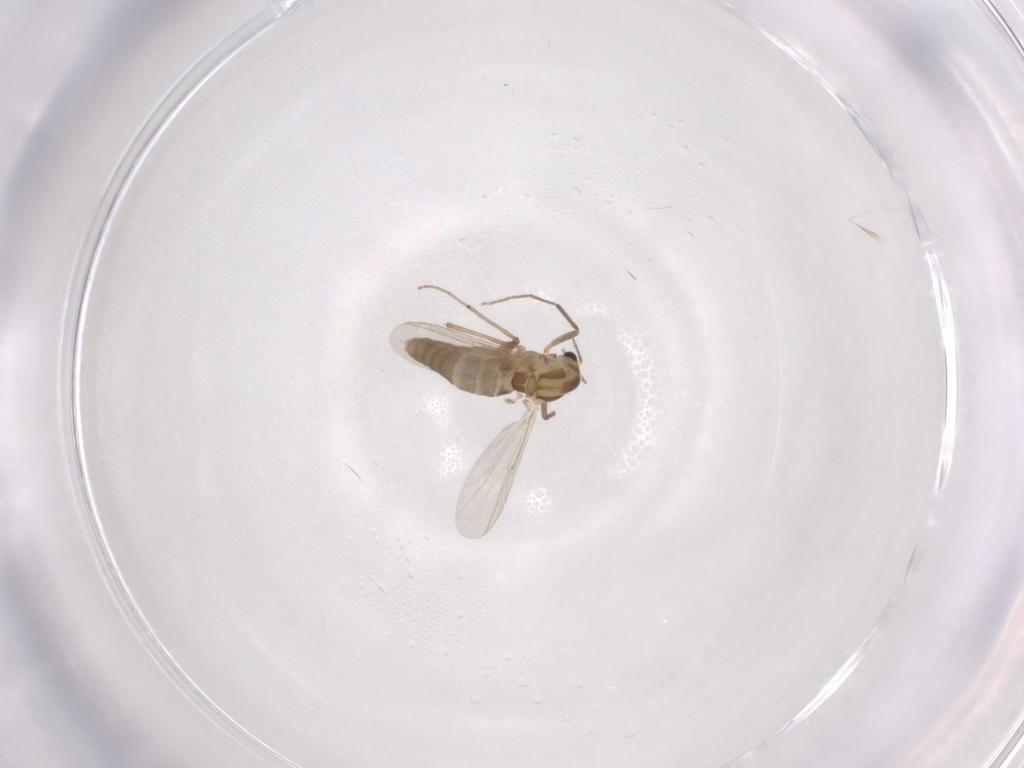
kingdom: Animalia
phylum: Arthropoda
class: Insecta
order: Diptera
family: Chironomidae
